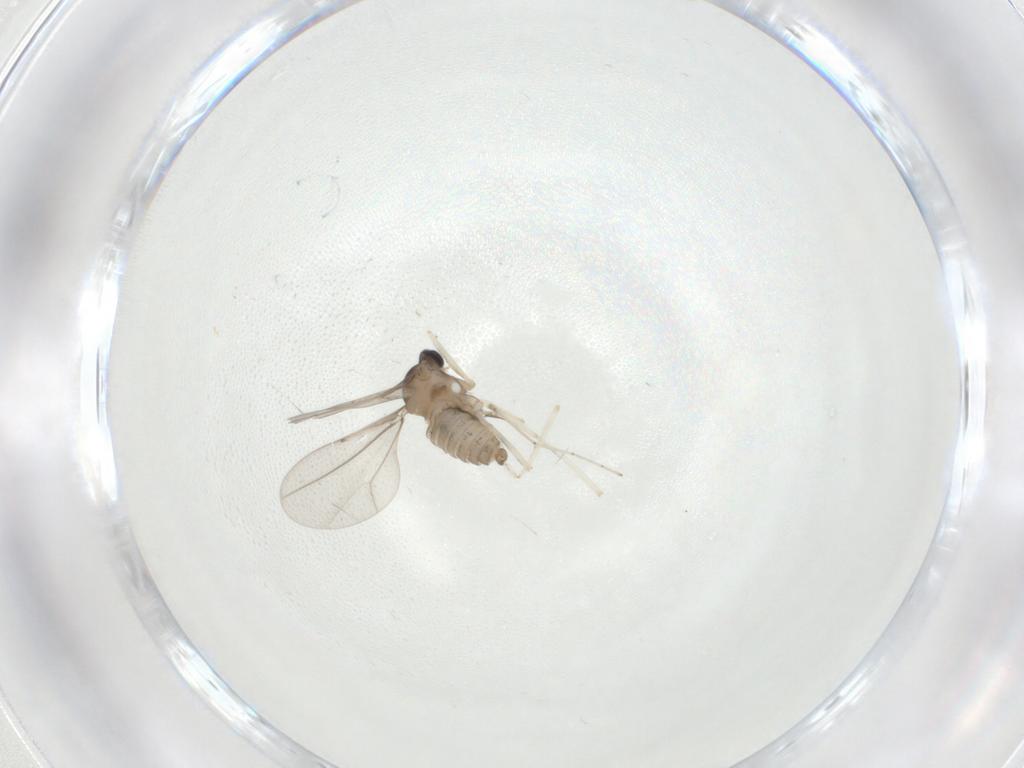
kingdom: Animalia
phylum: Arthropoda
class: Insecta
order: Diptera
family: Cecidomyiidae
